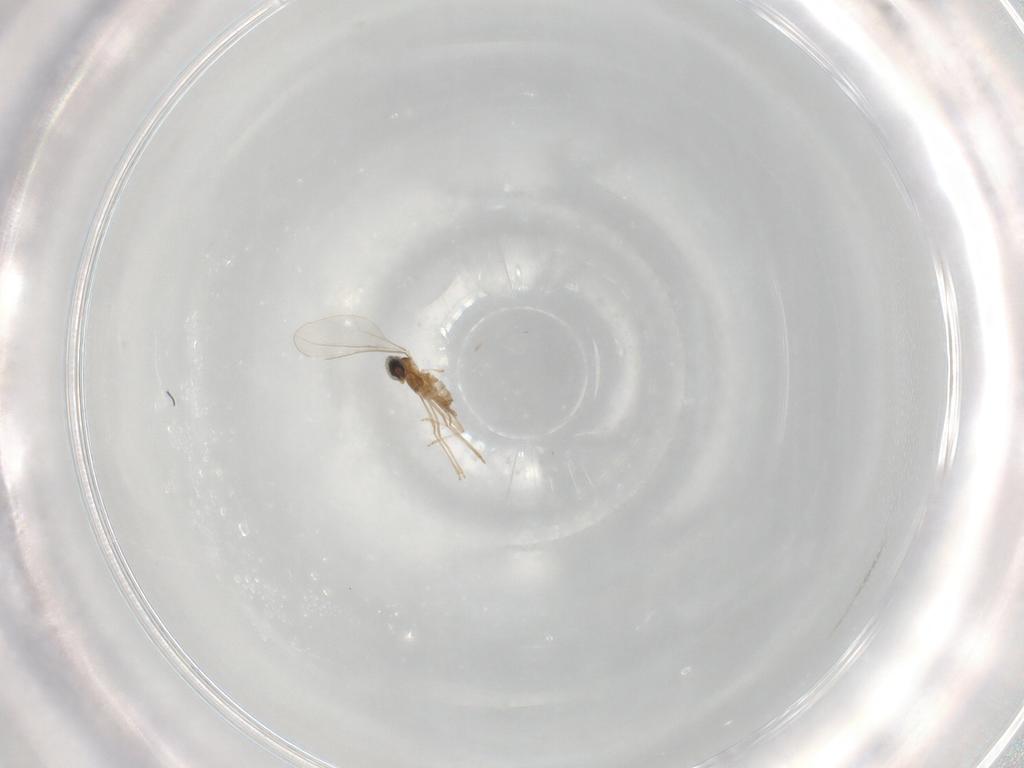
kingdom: Animalia
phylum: Arthropoda
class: Insecta
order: Diptera
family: Cecidomyiidae
